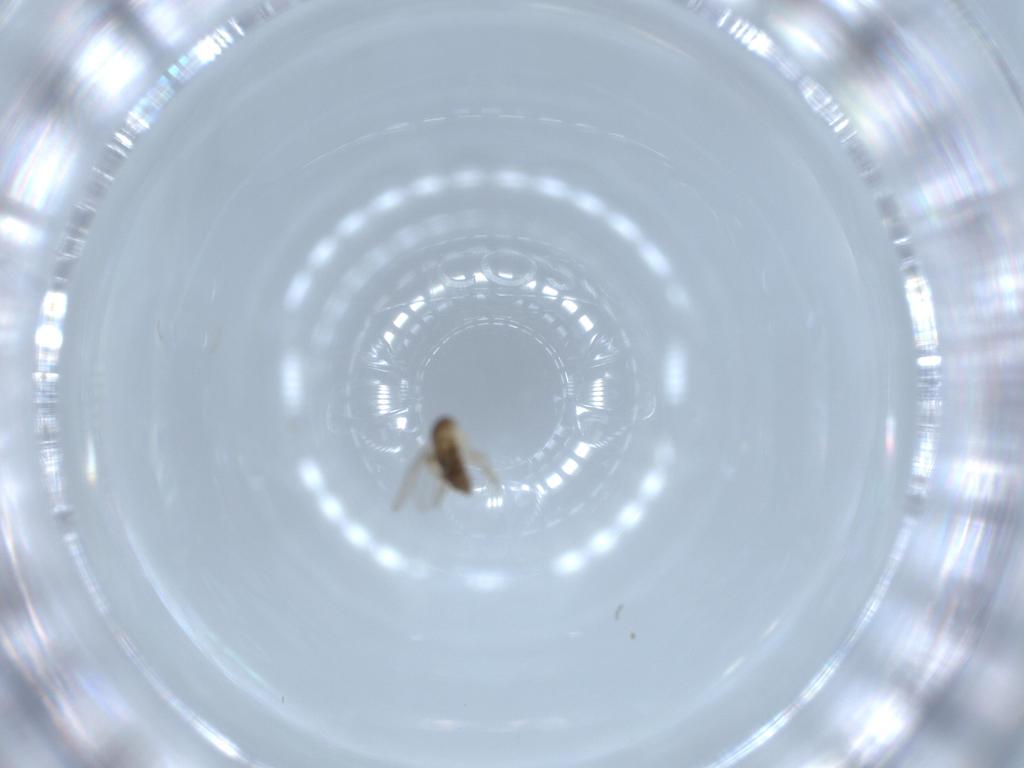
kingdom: Animalia
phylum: Arthropoda
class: Insecta
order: Diptera
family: Phoridae
